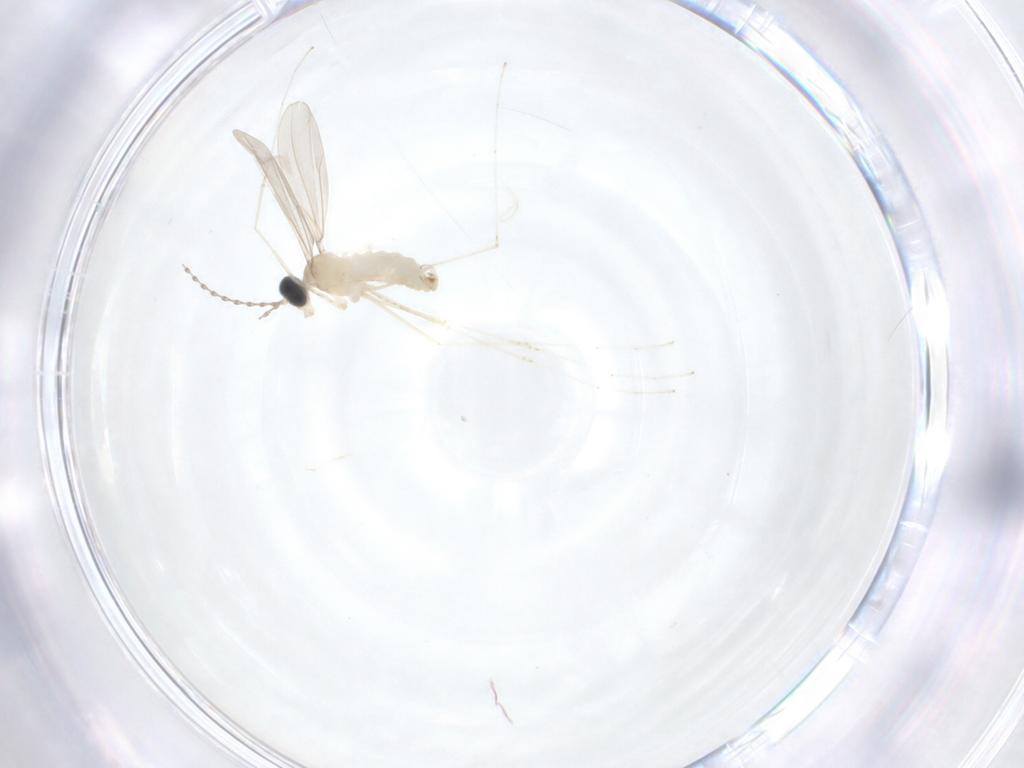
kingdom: Animalia
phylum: Arthropoda
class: Insecta
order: Diptera
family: Cecidomyiidae
